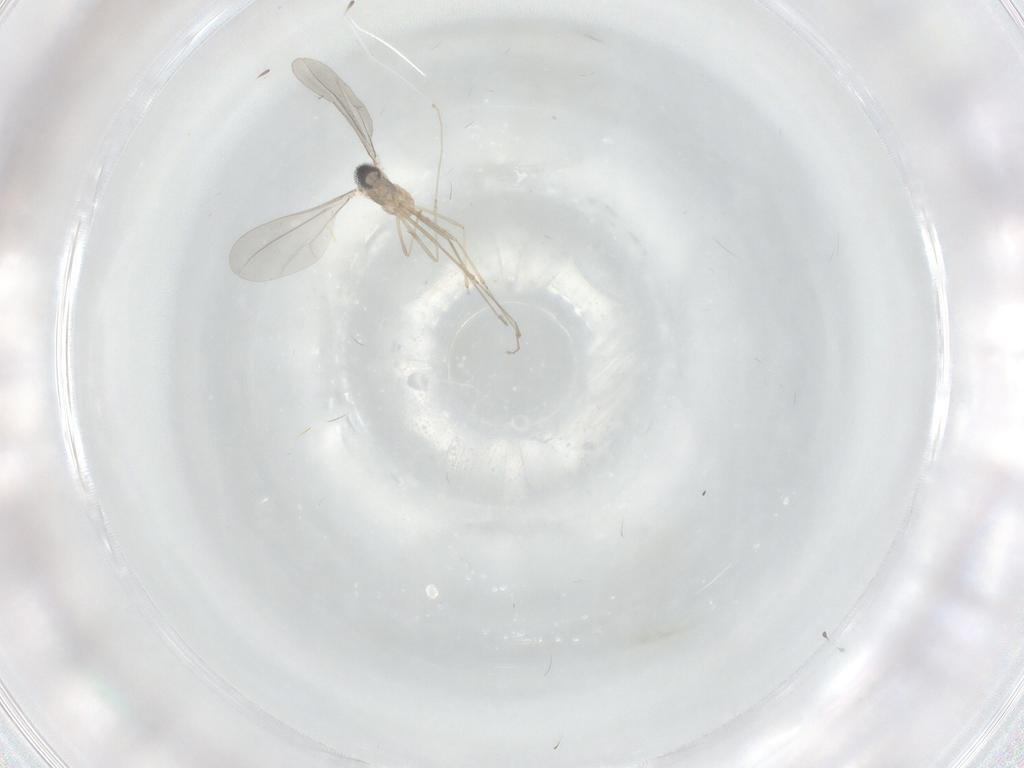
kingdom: Animalia
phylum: Arthropoda
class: Insecta
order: Diptera
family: Cecidomyiidae
